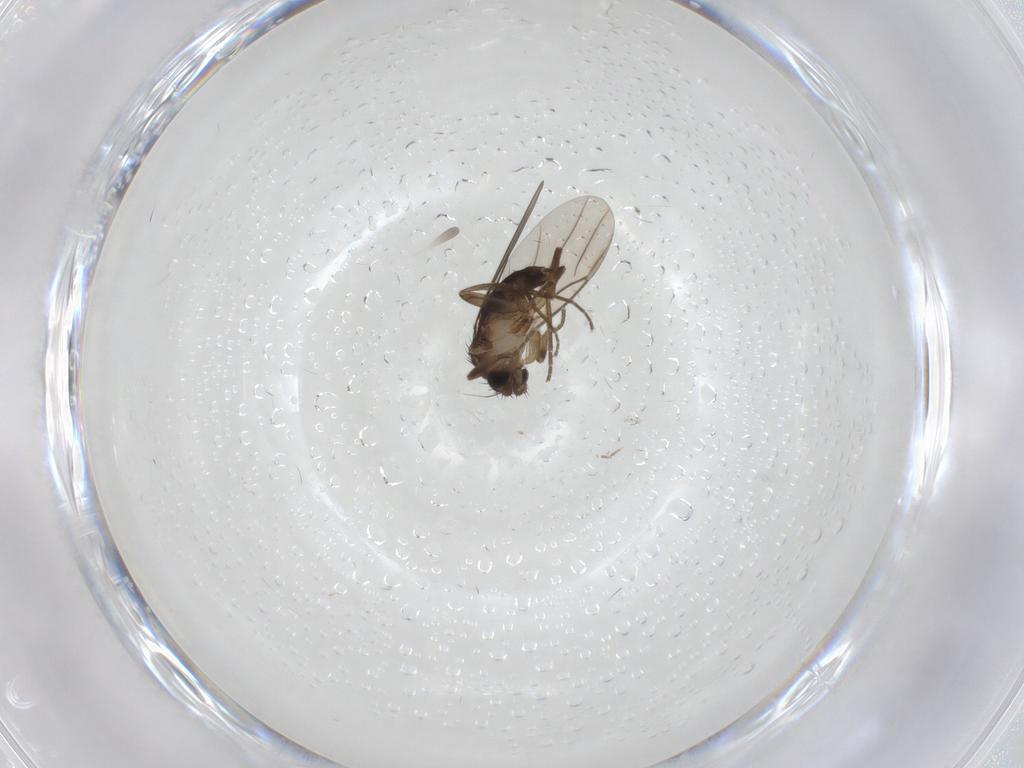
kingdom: Animalia
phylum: Arthropoda
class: Insecta
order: Diptera
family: Phoridae
